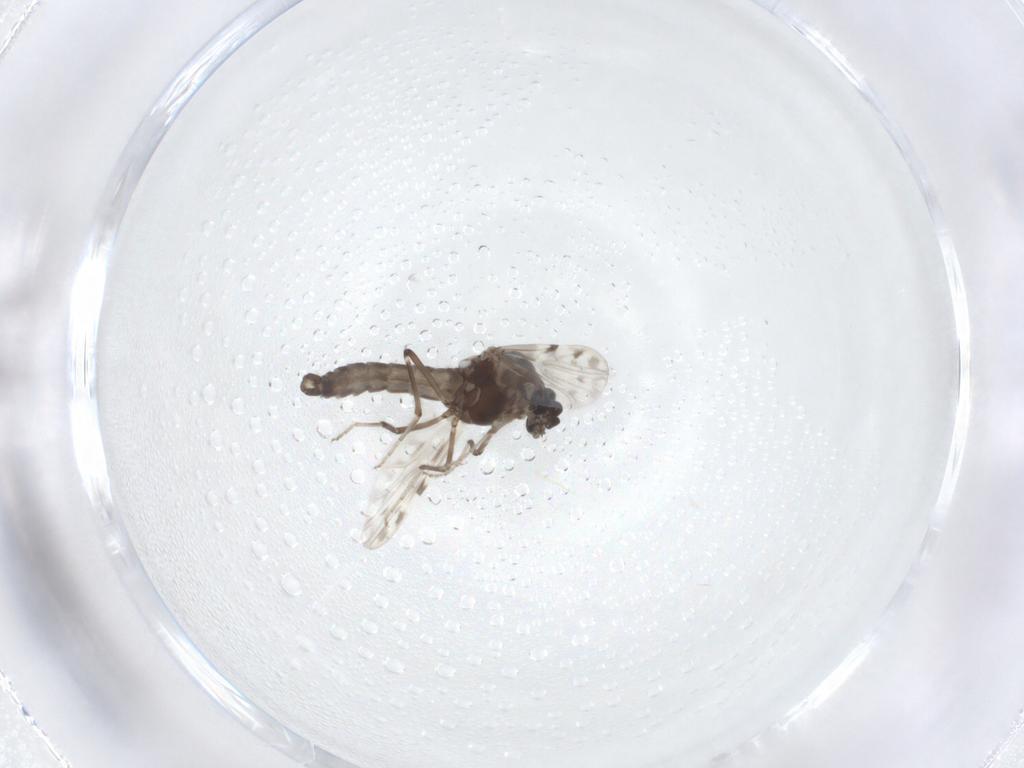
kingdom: Animalia
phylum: Arthropoda
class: Insecta
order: Diptera
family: Ceratopogonidae
